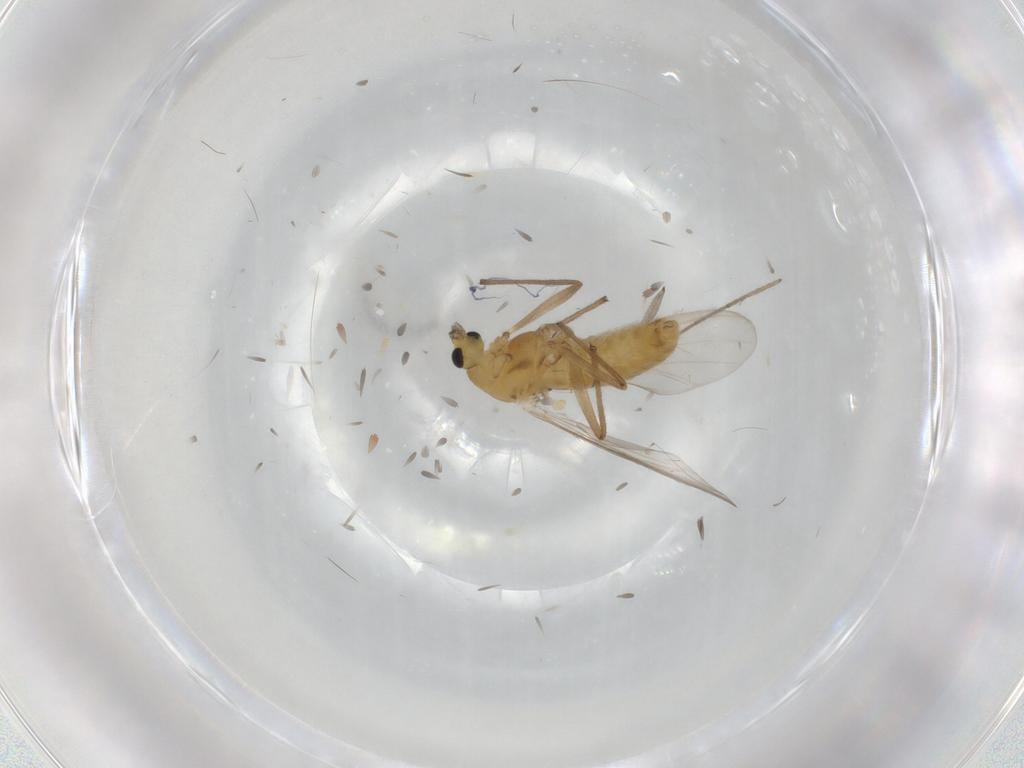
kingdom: Animalia
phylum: Arthropoda
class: Insecta
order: Diptera
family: Chironomidae
